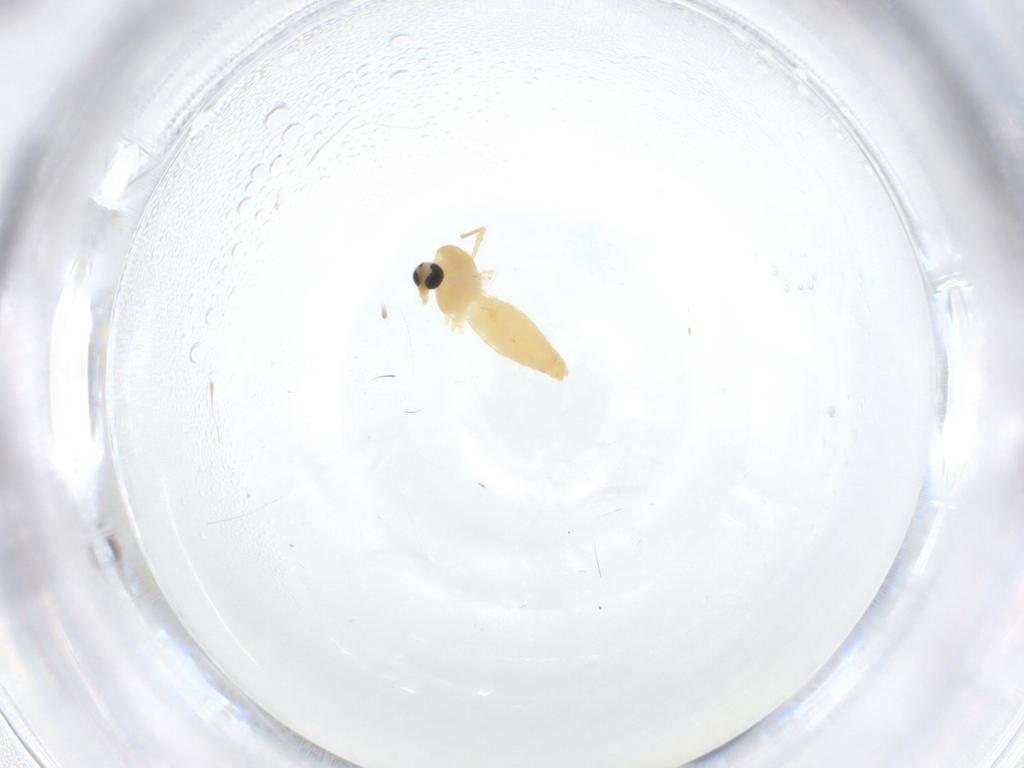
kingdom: Animalia
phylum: Arthropoda
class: Insecta
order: Diptera
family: Chironomidae
